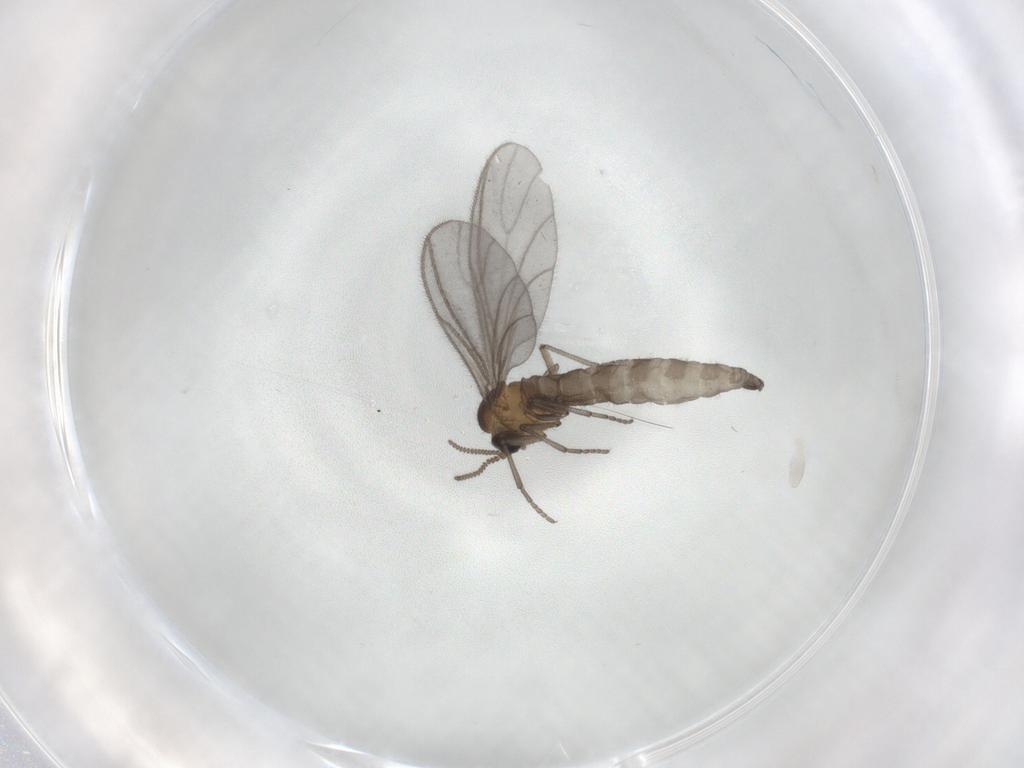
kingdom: Animalia
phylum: Arthropoda
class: Insecta
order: Diptera
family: Sciaridae
